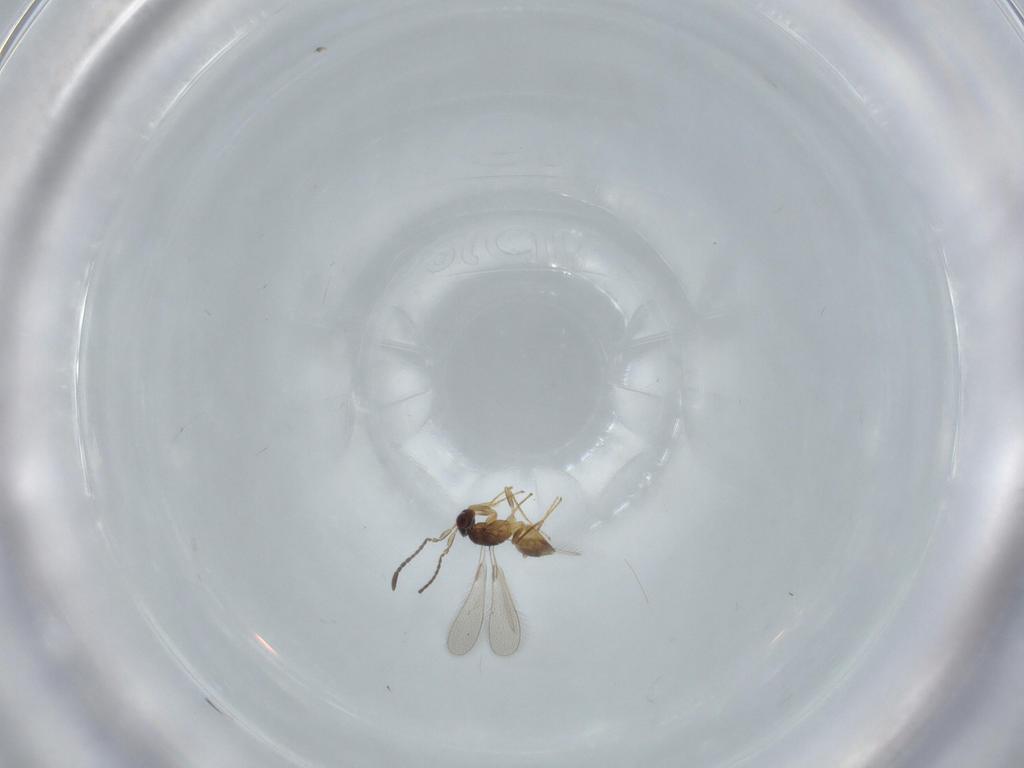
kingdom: Animalia
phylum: Arthropoda
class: Insecta
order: Hymenoptera
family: Mymaridae
